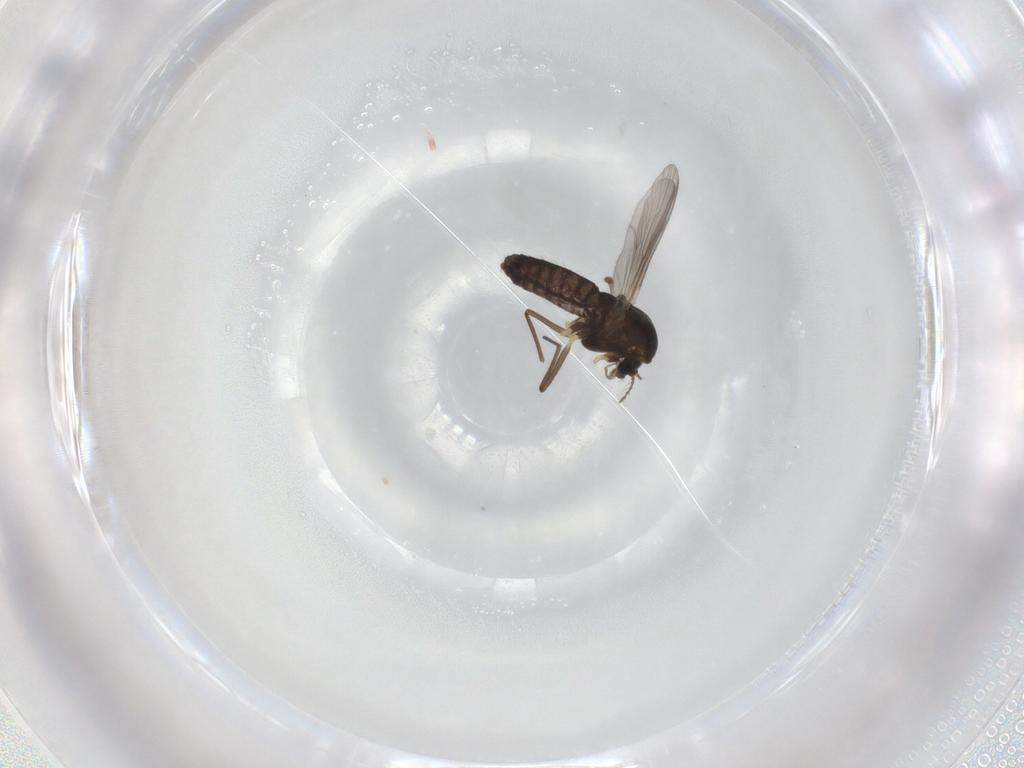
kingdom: Animalia
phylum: Arthropoda
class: Insecta
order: Diptera
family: Chironomidae
